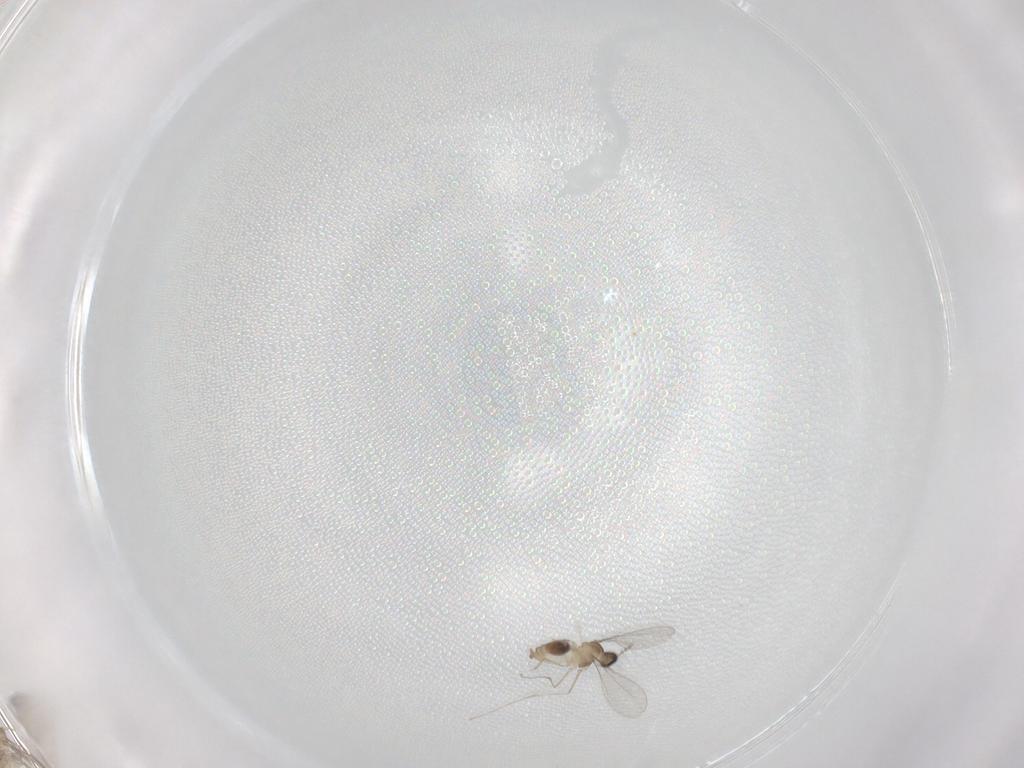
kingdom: Animalia
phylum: Arthropoda
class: Insecta
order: Diptera
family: Cecidomyiidae
